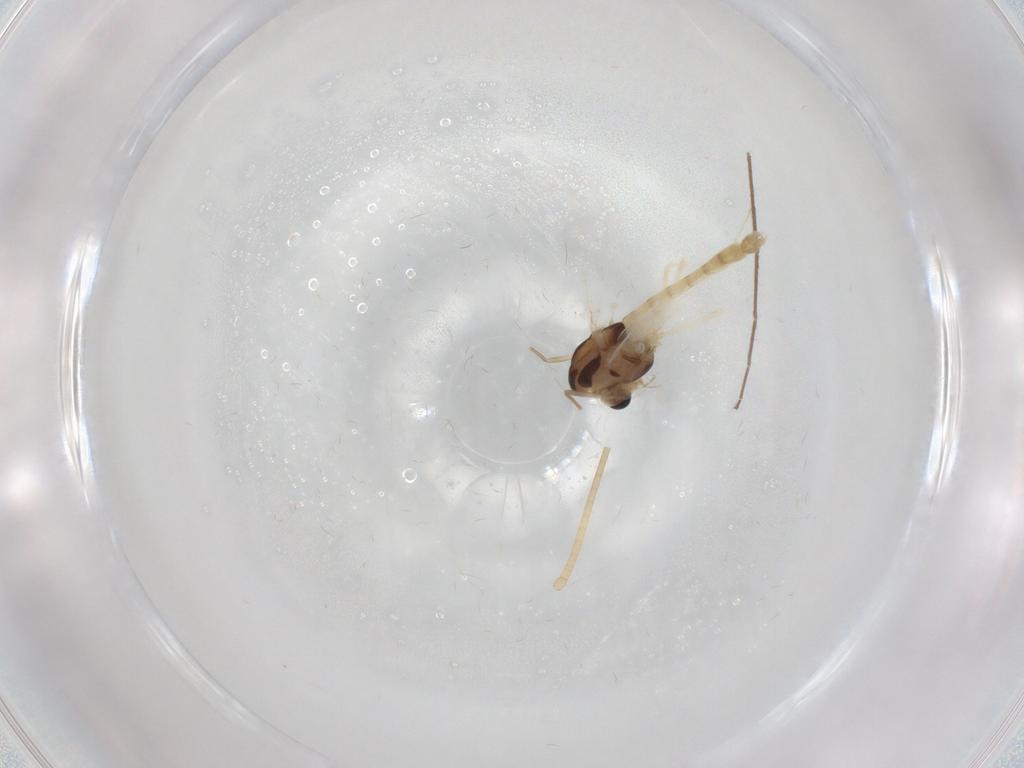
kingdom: Animalia
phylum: Arthropoda
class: Insecta
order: Diptera
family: Chironomidae
